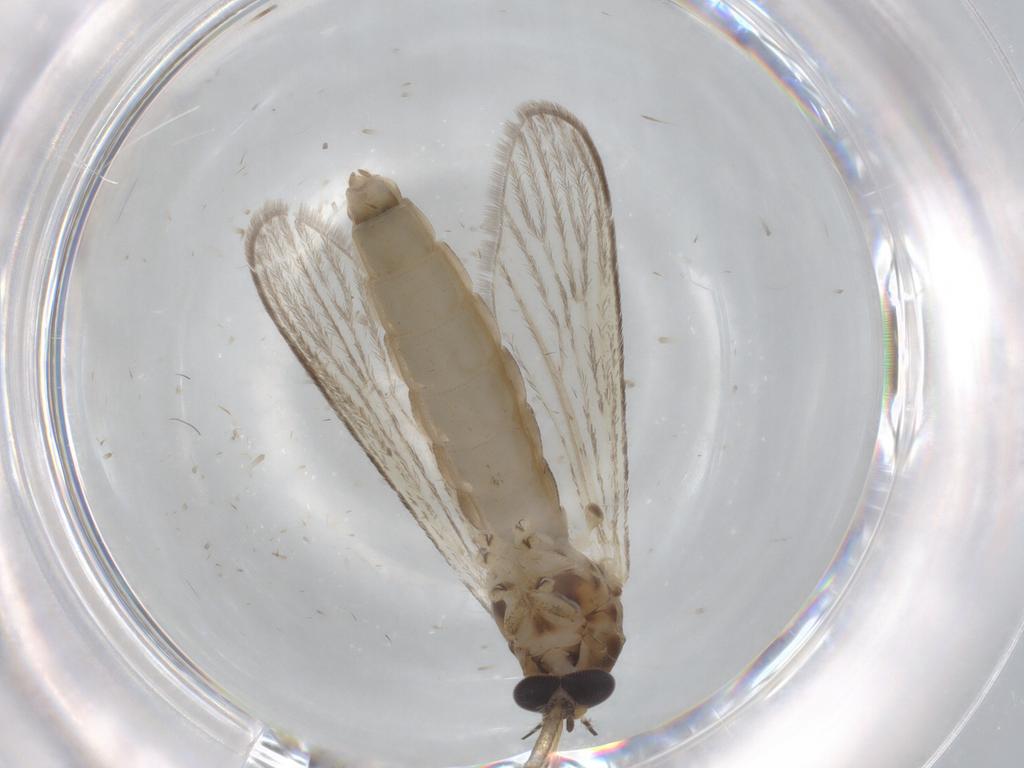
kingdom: Animalia
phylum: Arthropoda
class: Insecta
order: Diptera
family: Culicidae
